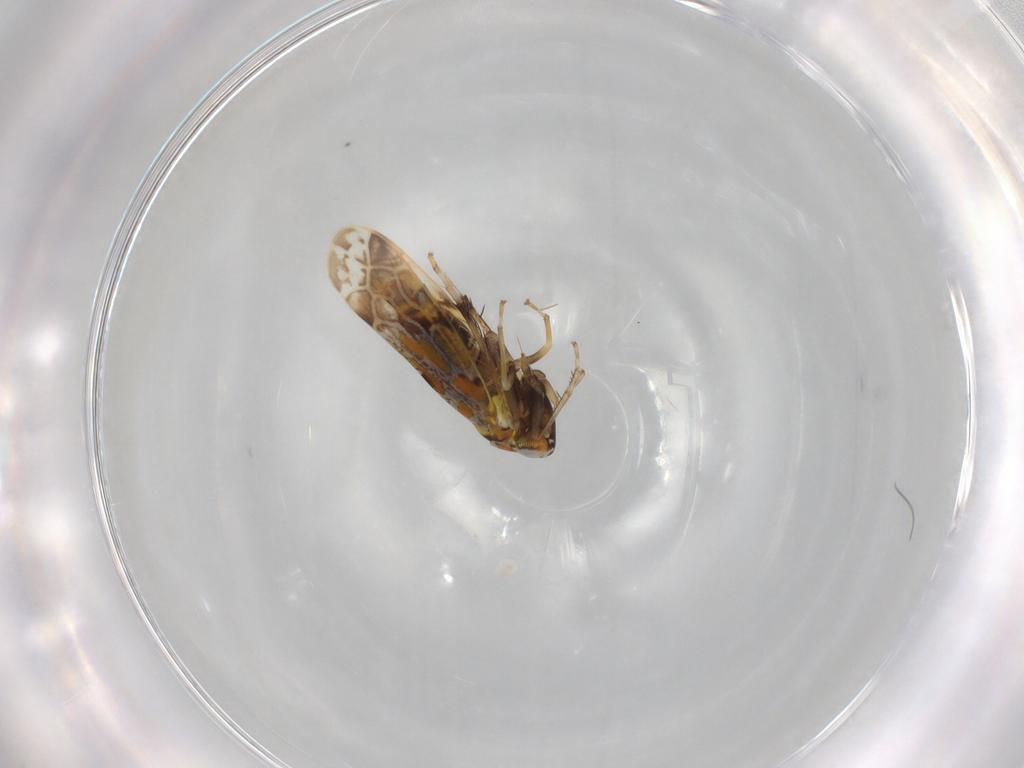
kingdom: Animalia
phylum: Arthropoda
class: Insecta
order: Hemiptera
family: Cicadellidae
